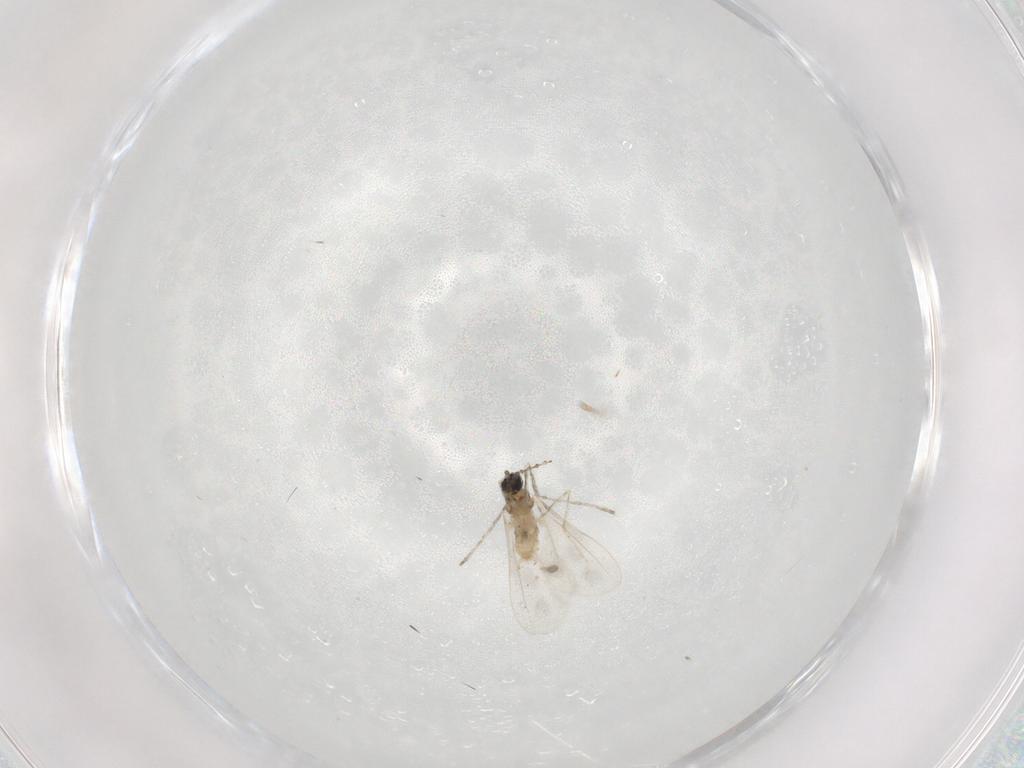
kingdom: Animalia
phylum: Arthropoda
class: Insecta
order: Diptera
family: Cecidomyiidae
